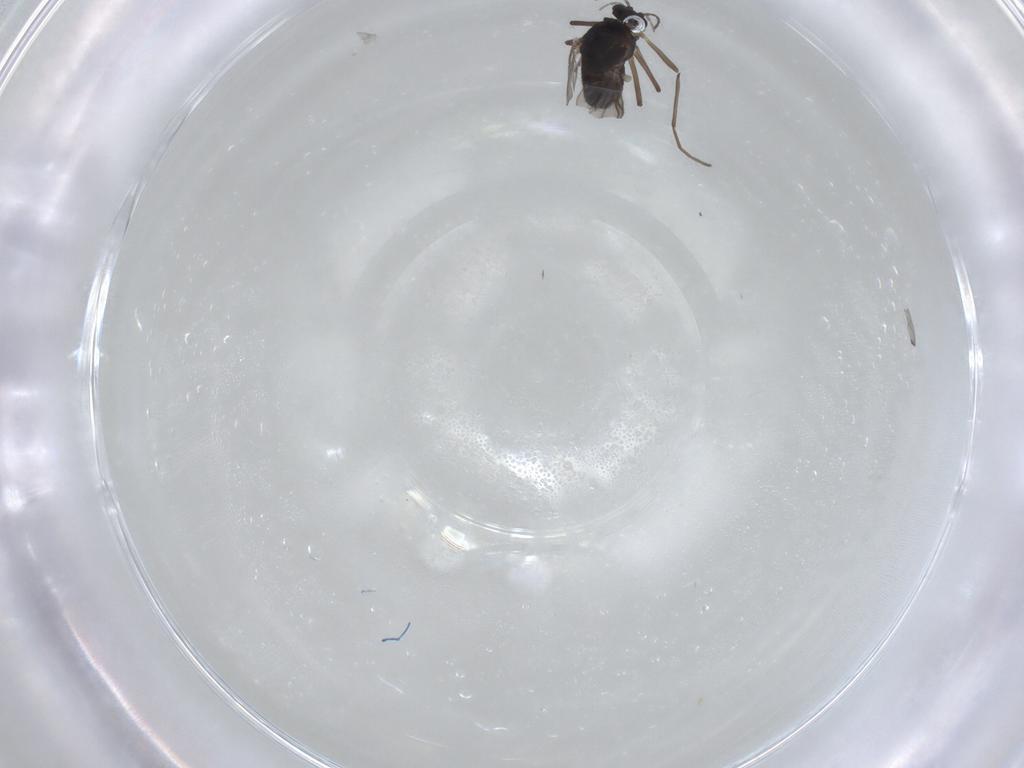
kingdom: Animalia
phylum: Arthropoda
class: Insecta
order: Diptera
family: Chironomidae
